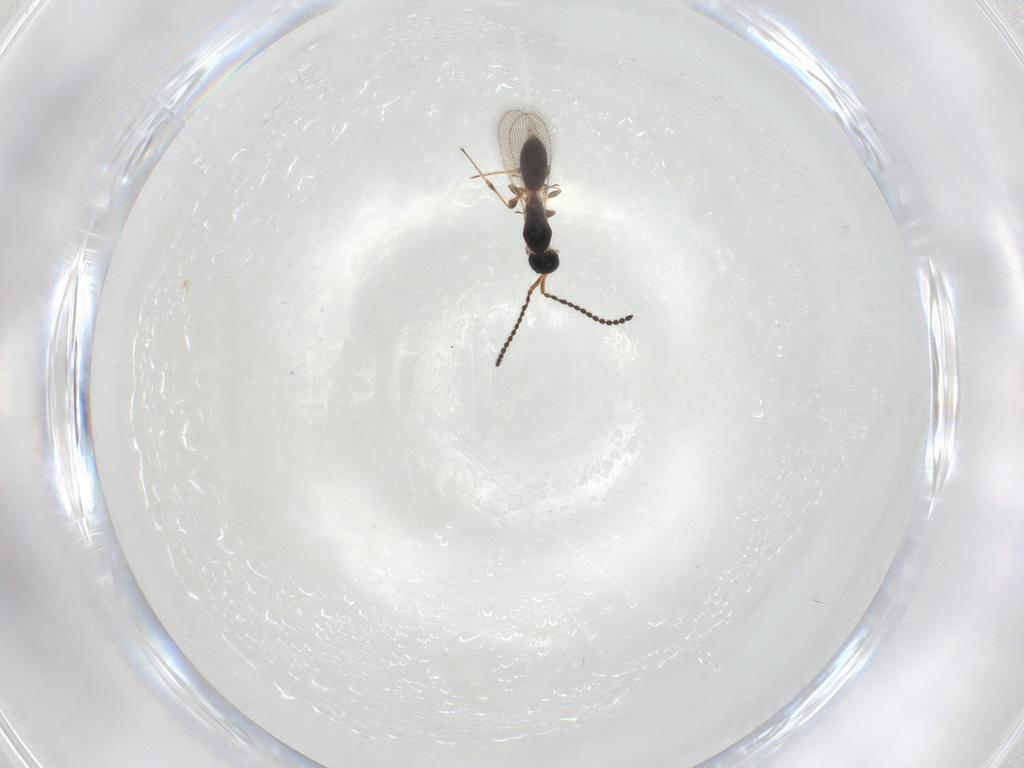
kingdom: Animalia
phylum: Arthropoda
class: Insecta
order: Hymenoptera
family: Diapriidae
